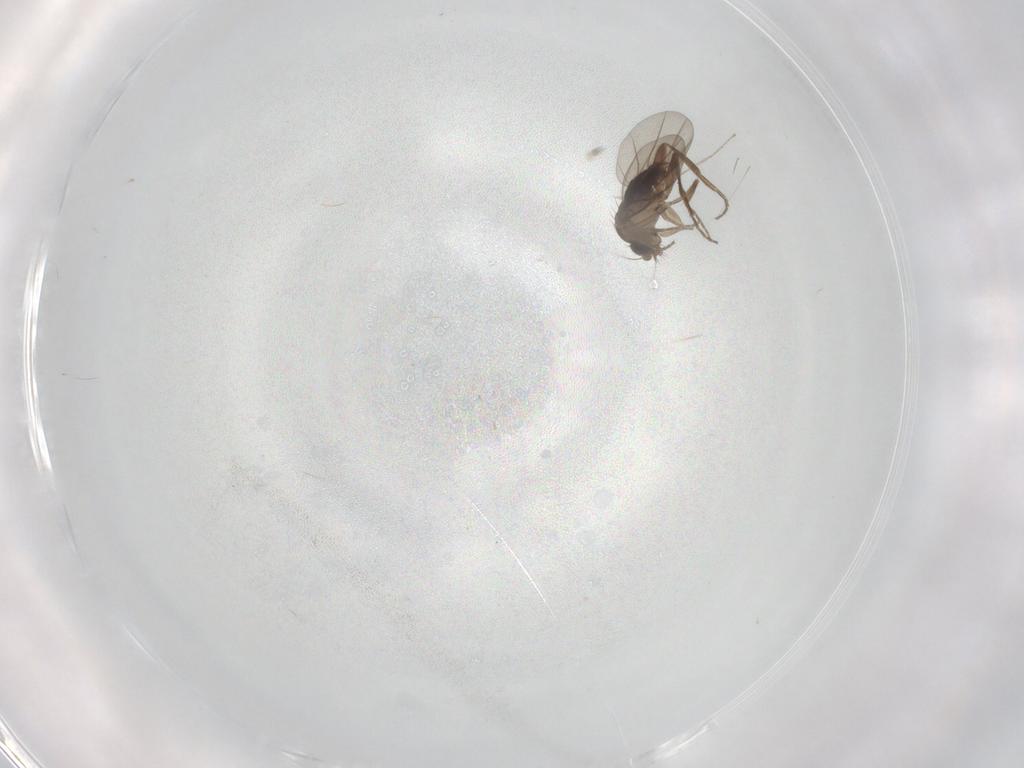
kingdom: Animalia
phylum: Arthropoda
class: Insecta
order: Diptera
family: Cecidomyiidae
